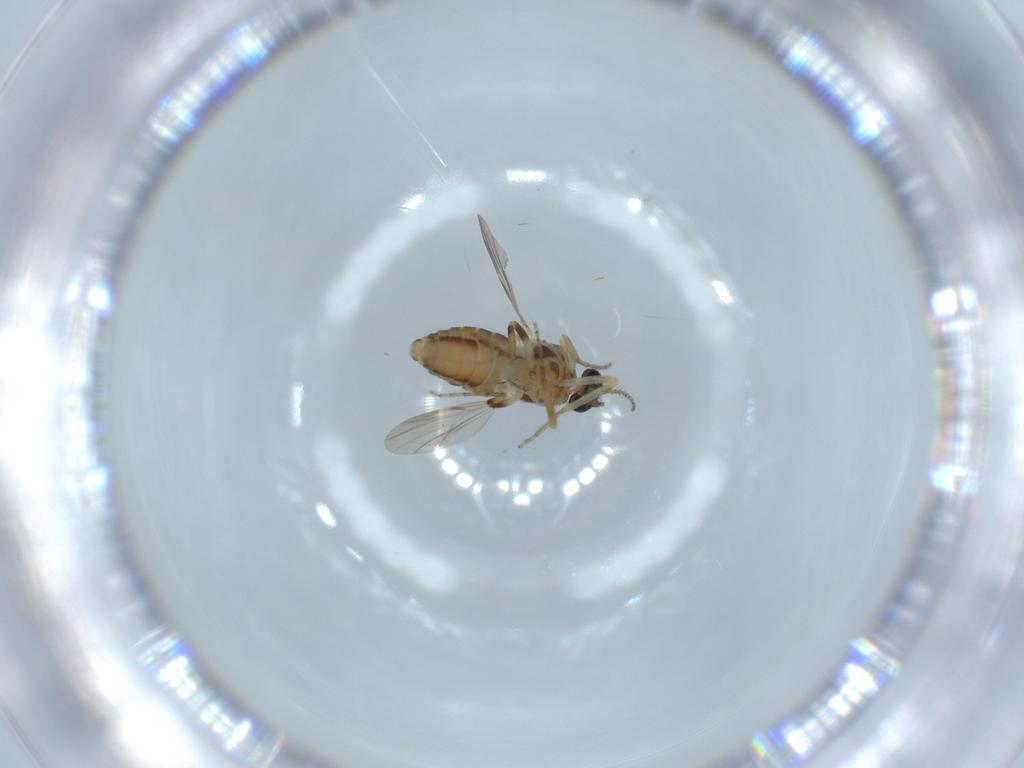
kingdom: Animalia
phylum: Arthropoda
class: Insecta
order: Diptera
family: Ceratopogonidae
